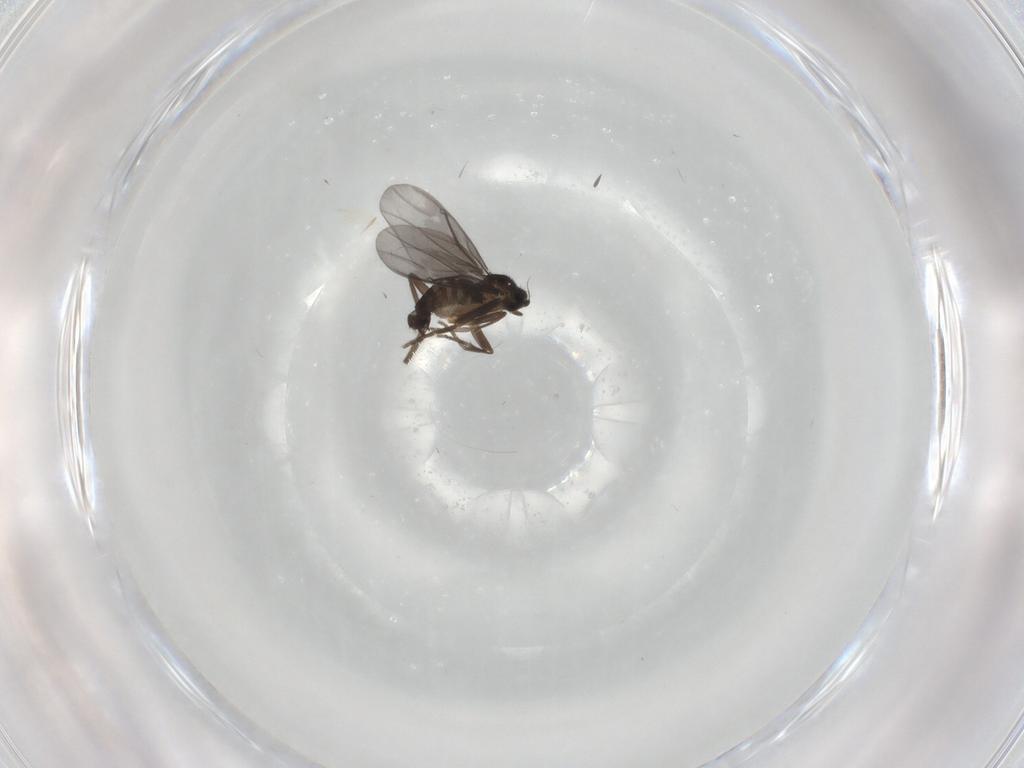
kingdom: Animalia
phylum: Arthropoda
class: Insecta
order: Diptera
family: Phoridae
